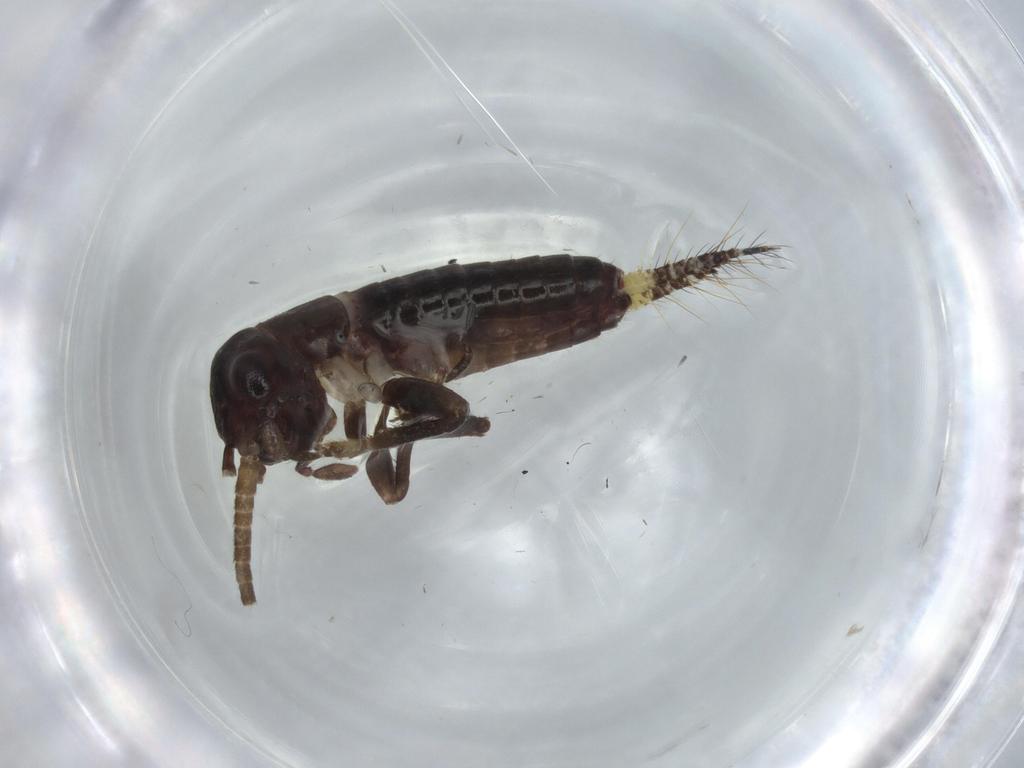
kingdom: Animalia
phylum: Arthropoda
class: Insecta
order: Orthoptera
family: Gryllidae
